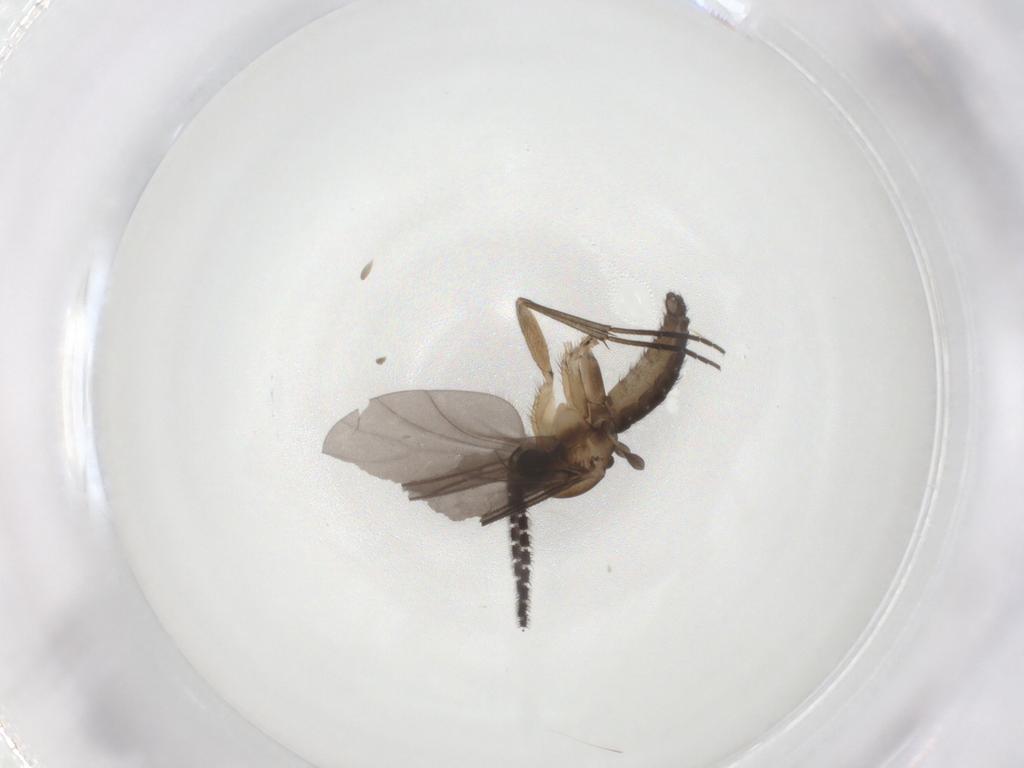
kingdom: Animalia
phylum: Arthropoda
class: Insecta
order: Diptera
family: Sciaridae
